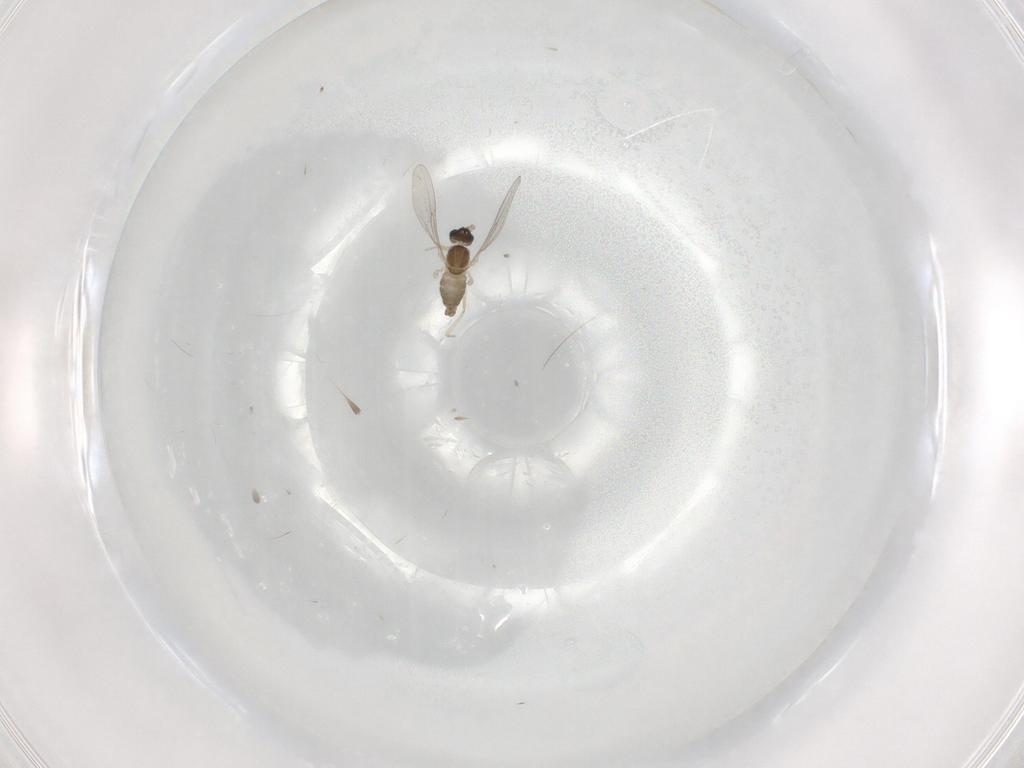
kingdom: Animalia
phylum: Arthropoda
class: Insecta
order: Diptera
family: Cecidomyiidae
